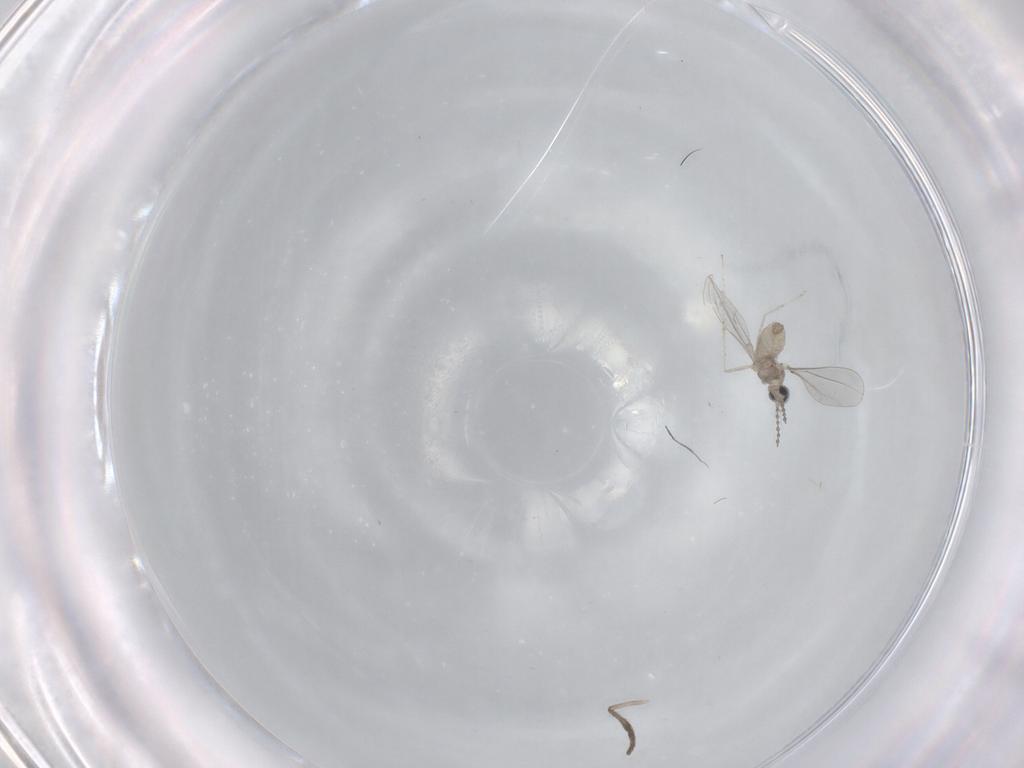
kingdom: Animalia
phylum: Arthropoda
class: Insecta
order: Diptera
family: Psychodidae
